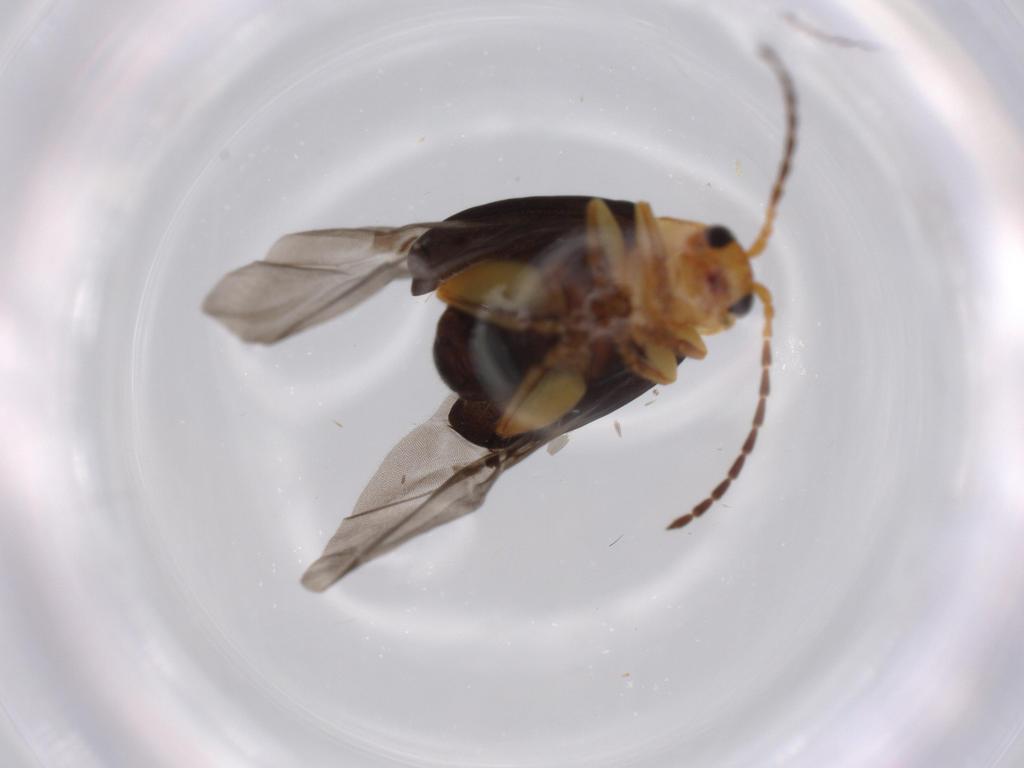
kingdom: Animalia
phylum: Arthropoda
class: Insecta
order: Coleoptera
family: Chrysomelidae
